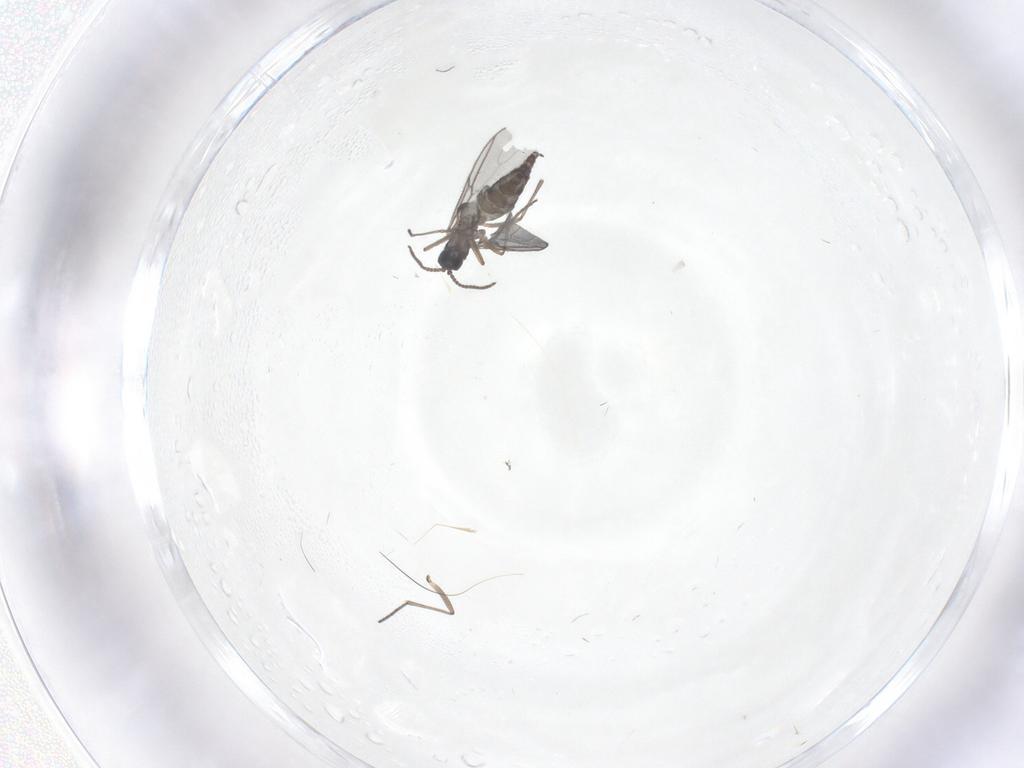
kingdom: Animalia
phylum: Arthropoda
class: Insecta
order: Diptera
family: Sciaridae
